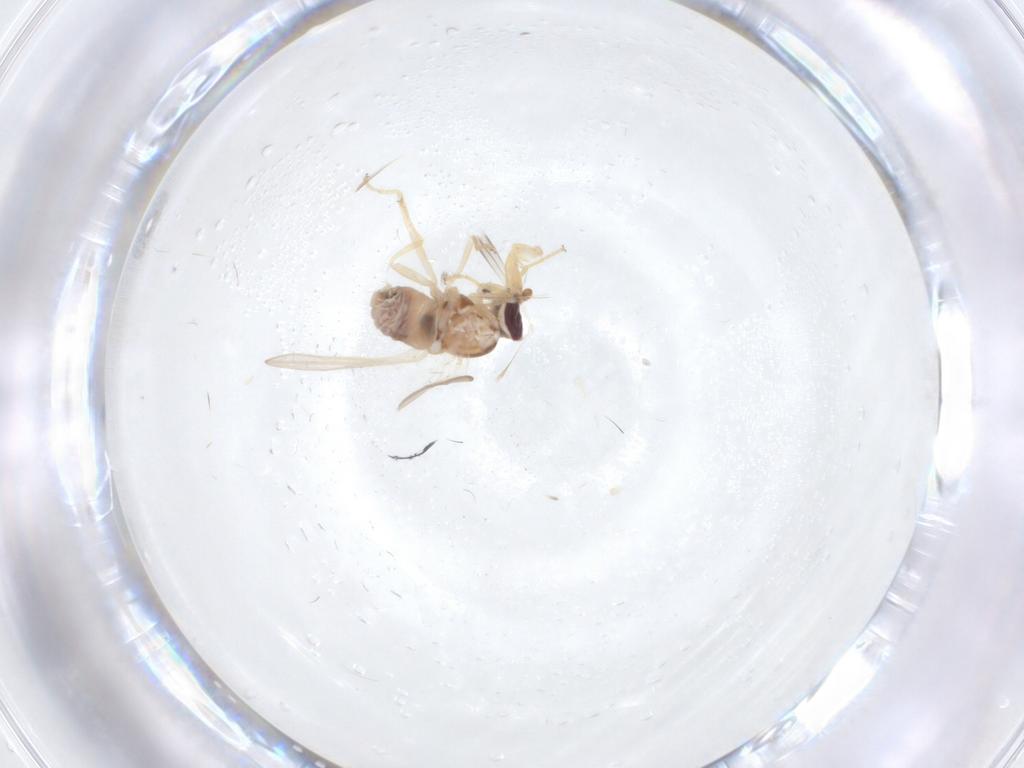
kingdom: Animalia
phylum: Arthropoda
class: Insecta
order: Diptera
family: Chloropidae
